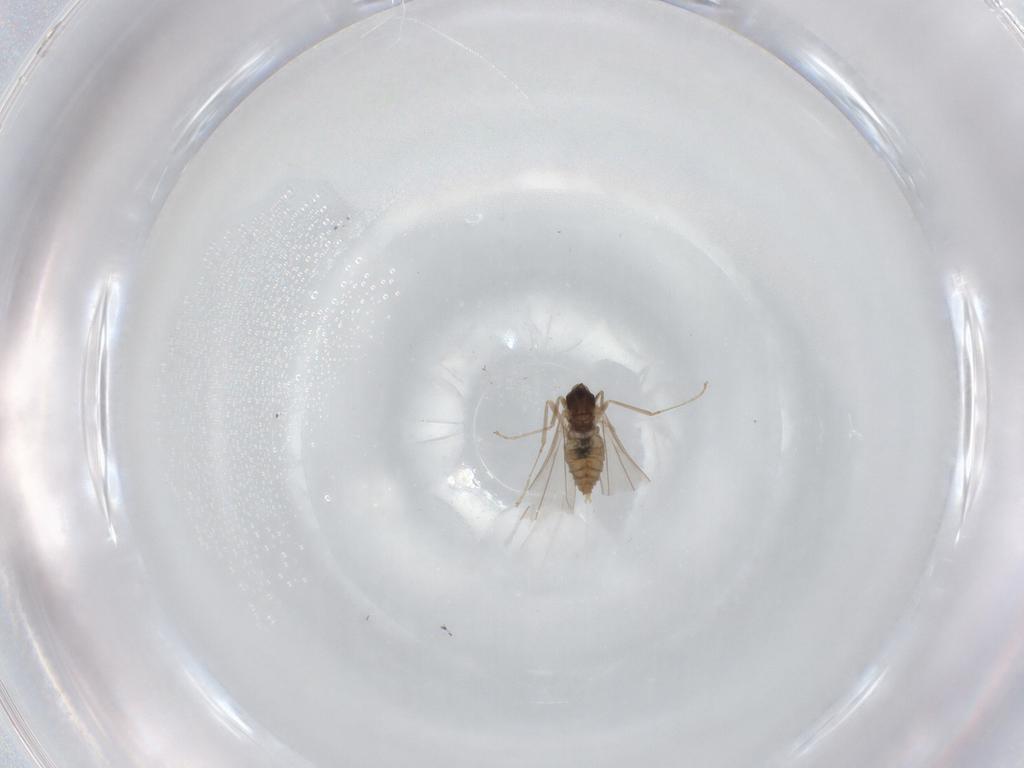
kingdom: Animalia
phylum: Arthropoda
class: Insecta
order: Diptera
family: Cecidomyiidae
